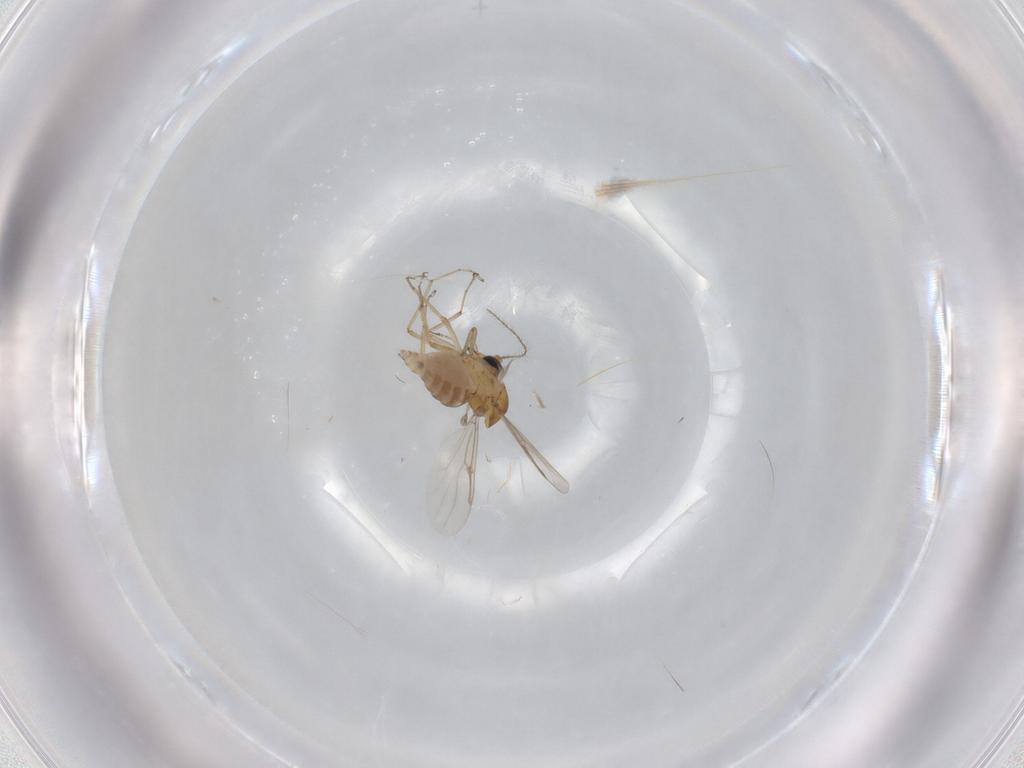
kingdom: Animalia
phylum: Arthropoda
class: Insecta
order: Diptera
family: Ceratopogonidae
